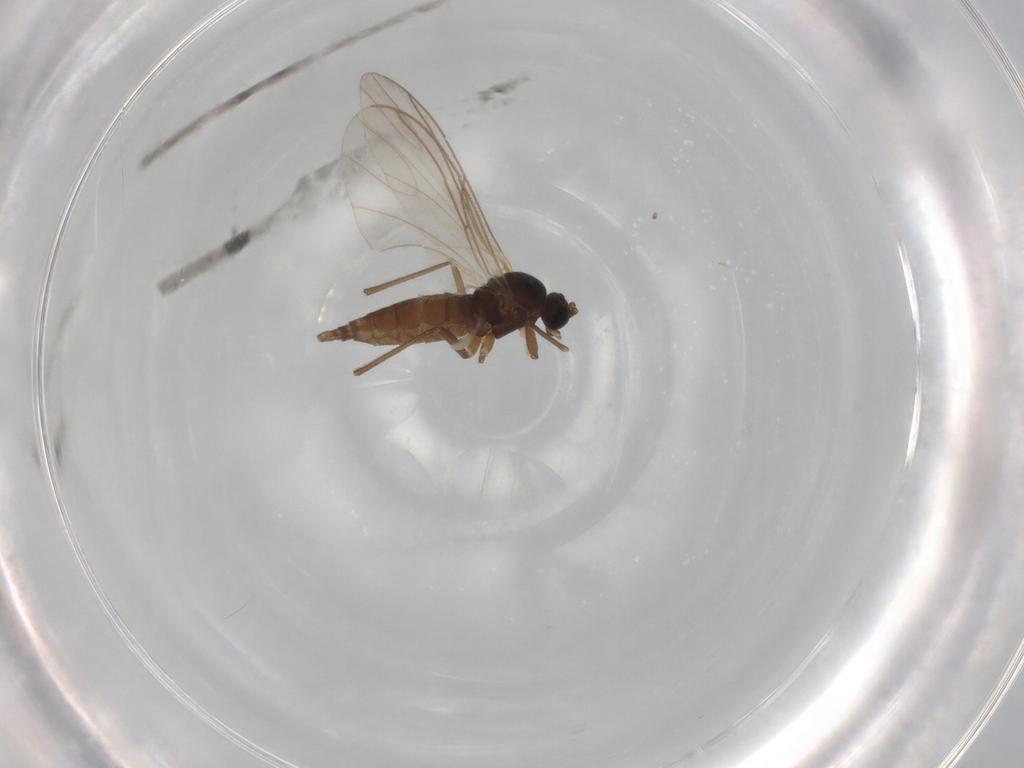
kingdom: Animalia
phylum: Arthropoda
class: Insecta
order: Diptera
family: Sciaridae
